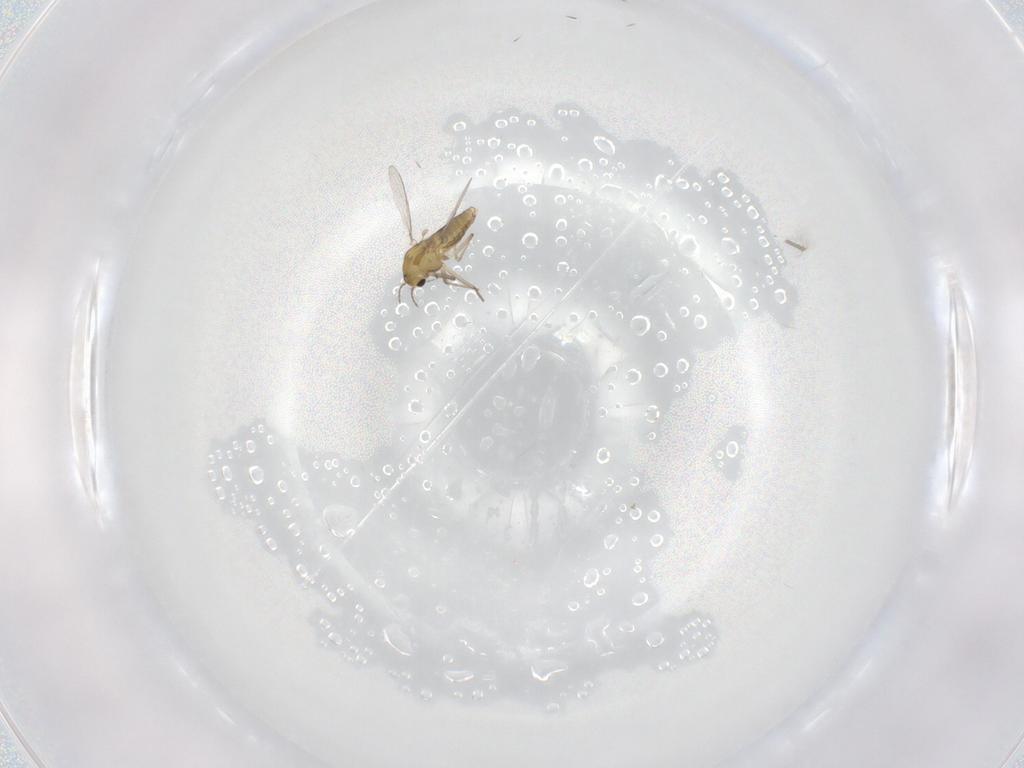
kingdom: Animalia
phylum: Arthropoda
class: Insecta
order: Diptera
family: Chironomidae
